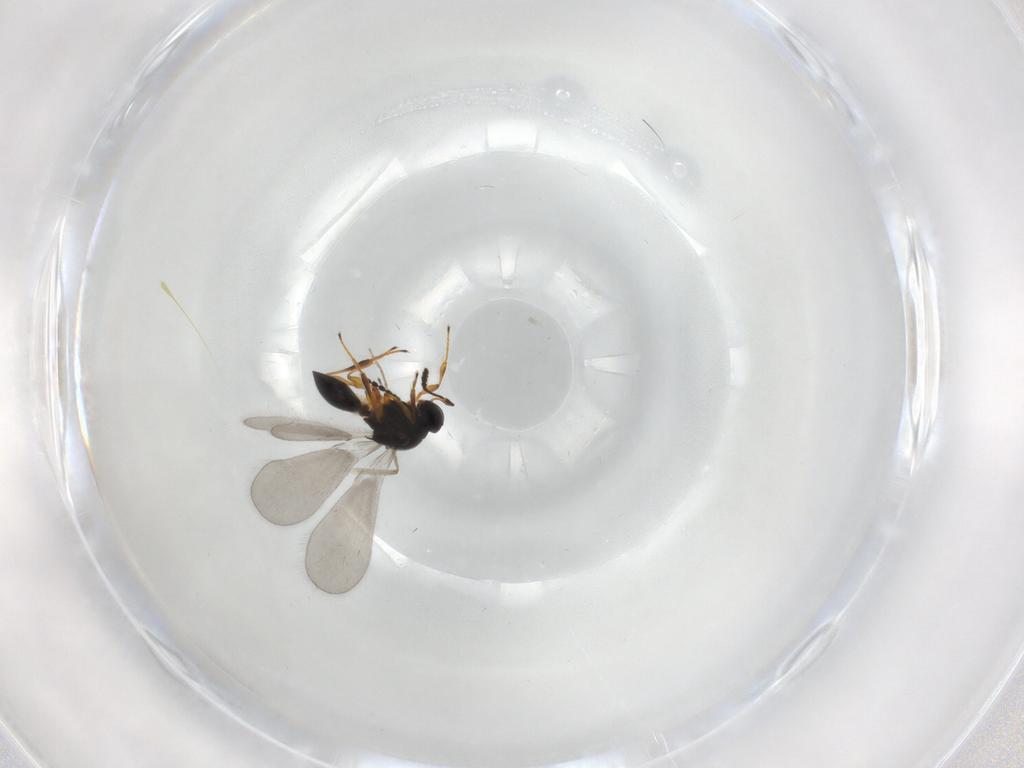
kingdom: Animalia
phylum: Arthropoda
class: Insecta
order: Hymenoptera
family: Platygastridae
